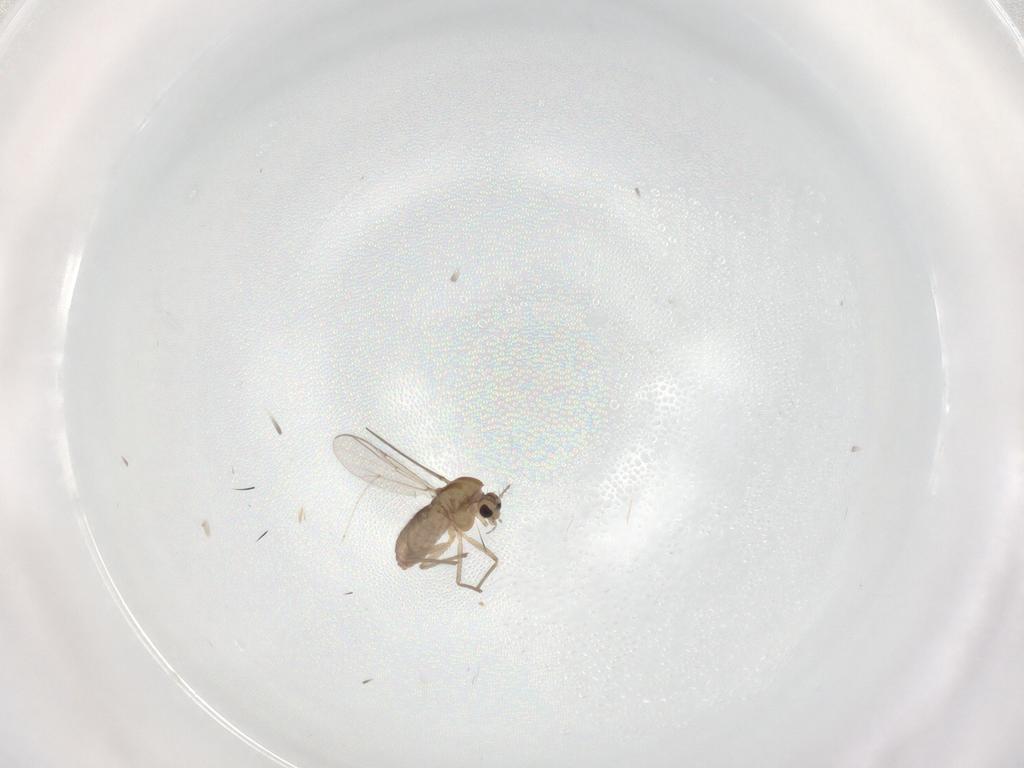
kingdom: Animalia
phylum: Arthropoda
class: Insecta
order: Diptera
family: Chironomidae
